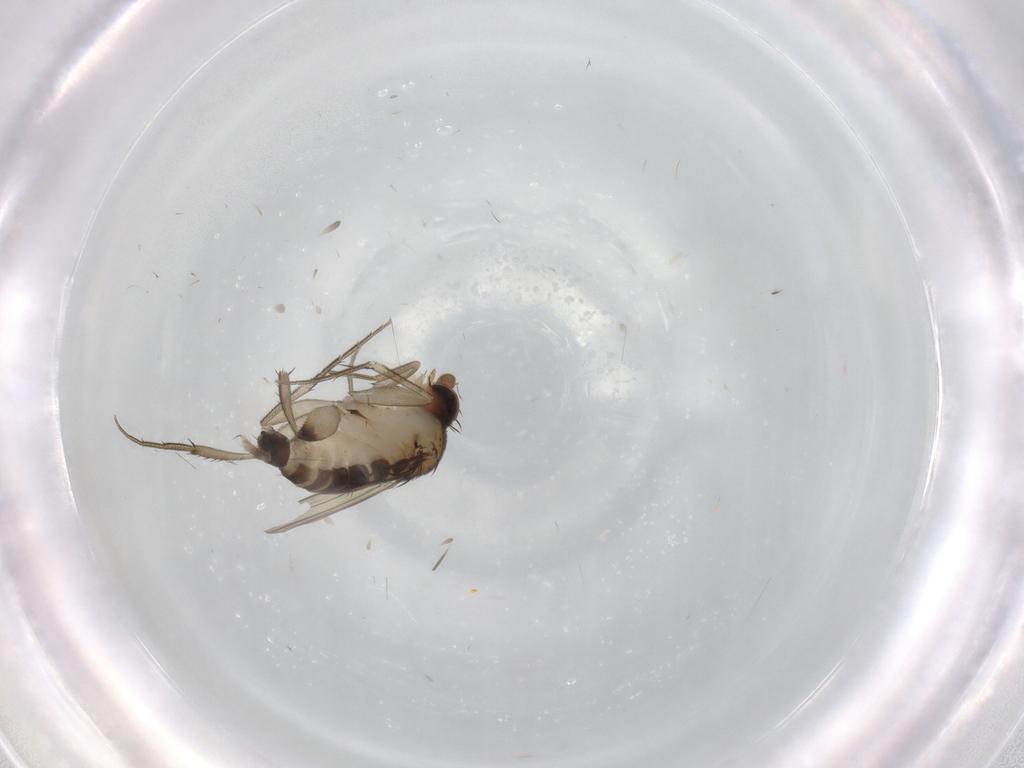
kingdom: Animalia
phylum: Arthropoda
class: Insecta
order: Diptera
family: Phoridae
